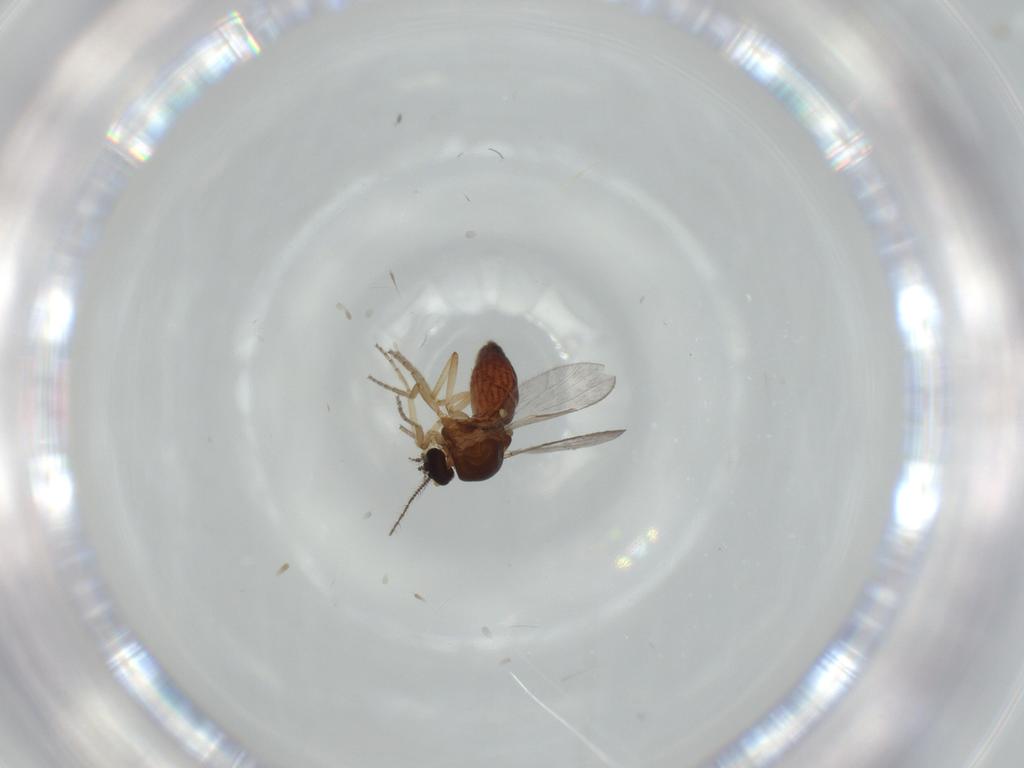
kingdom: Animalia
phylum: Arthropoda
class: Insecta
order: Diptera
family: Ceratopogonidae
